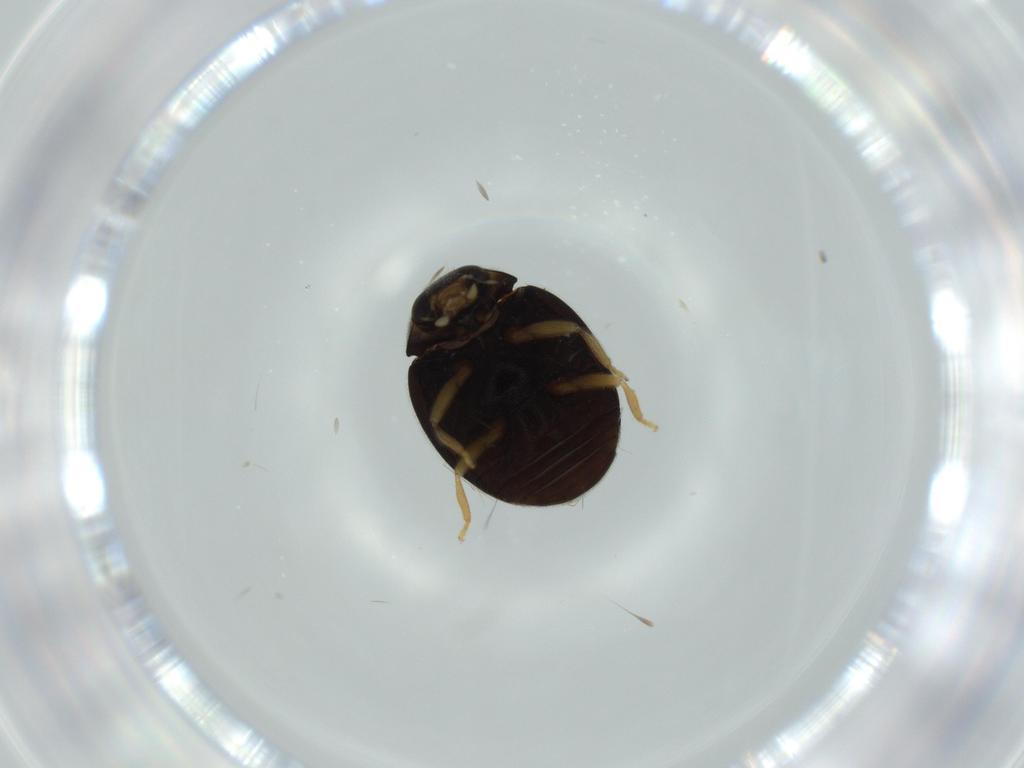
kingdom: Animalia
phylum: Arthropoda
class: Insecta
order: Coleoptera
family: Coccinellidae
